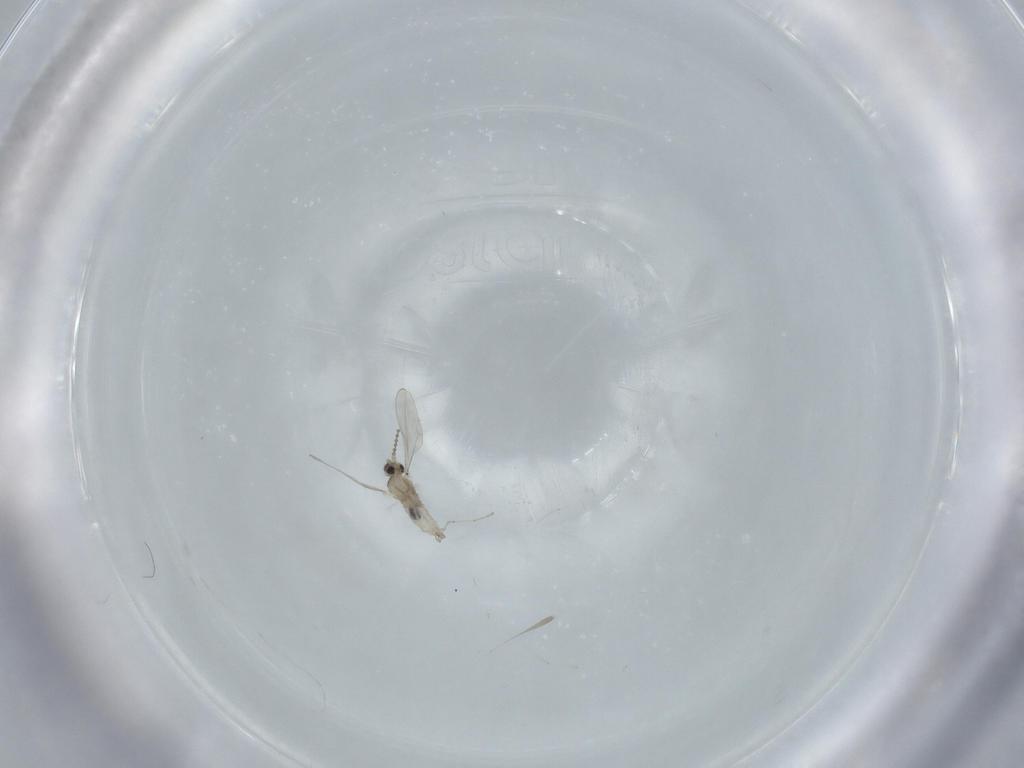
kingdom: Animalia
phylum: Arthropoda
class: Insecta
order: Diptera
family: Cecidomyiidae
